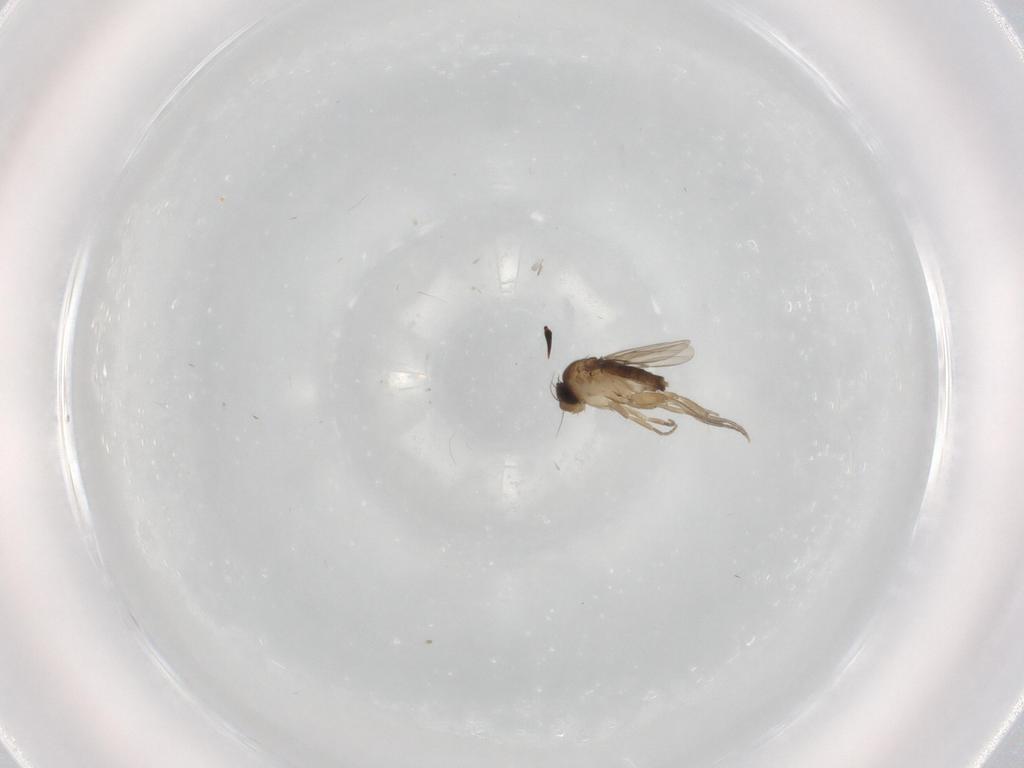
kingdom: Animalia
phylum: Arthropoda
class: Insecta
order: Diptera
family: Phoridae
